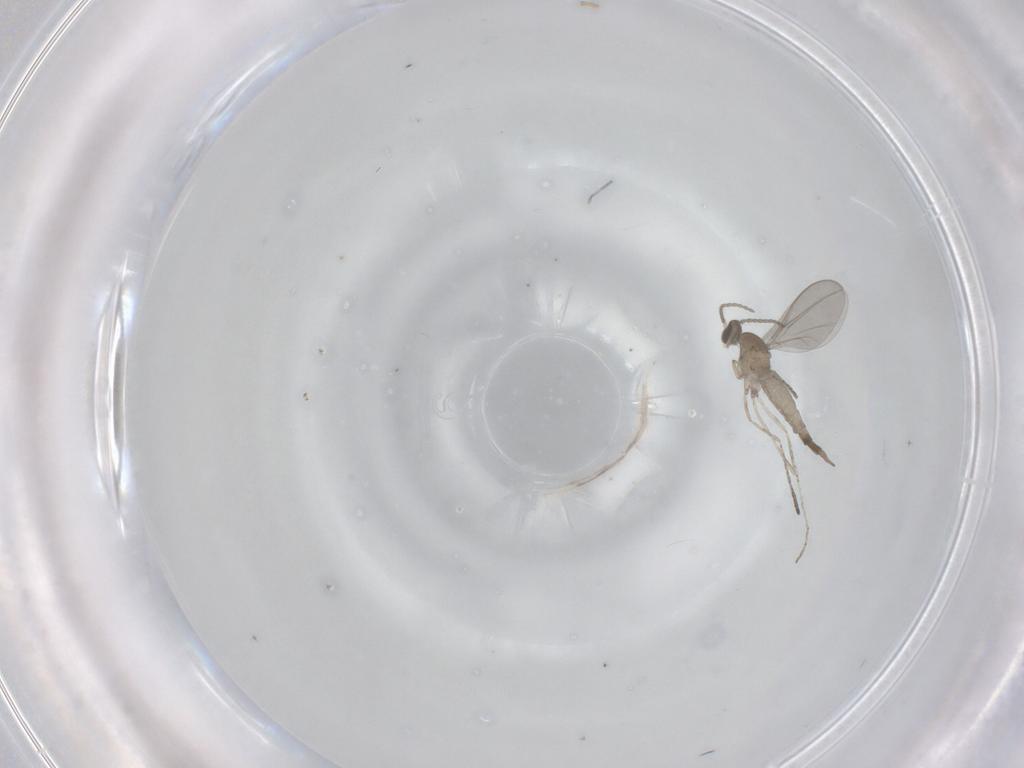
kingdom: Animalia
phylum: Arthropoda
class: Insecta
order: Diptera
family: Cecidomyiidae
